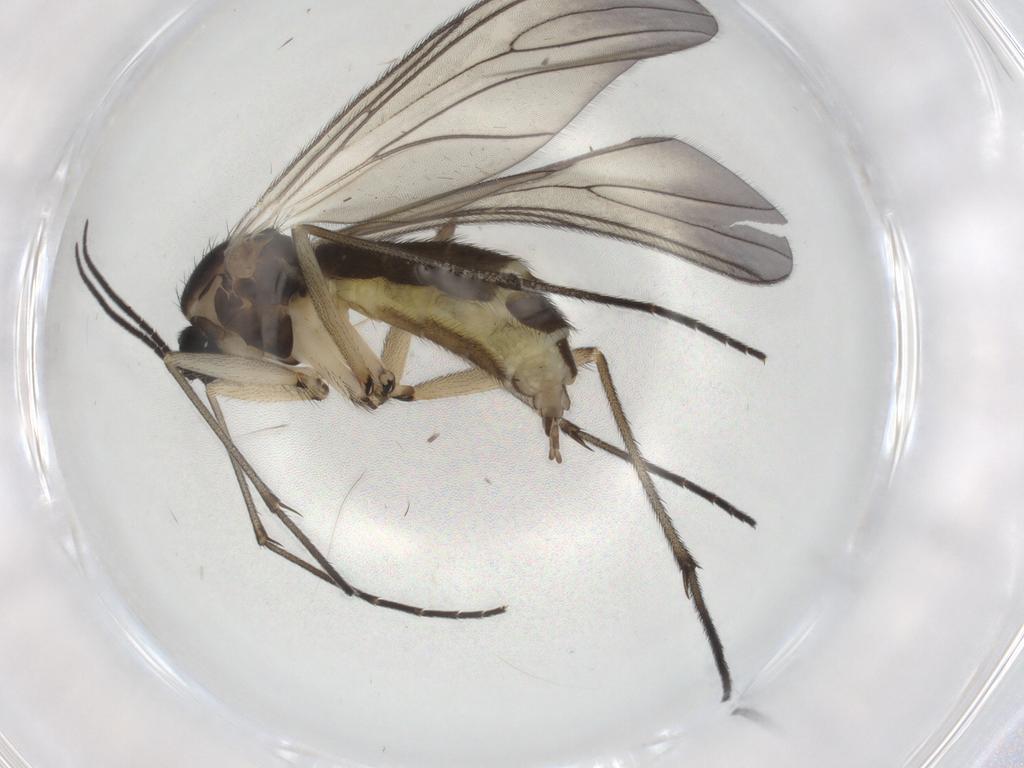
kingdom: Animalia
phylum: Arthropoda
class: Insecta
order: Diptera
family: Sciaridae
